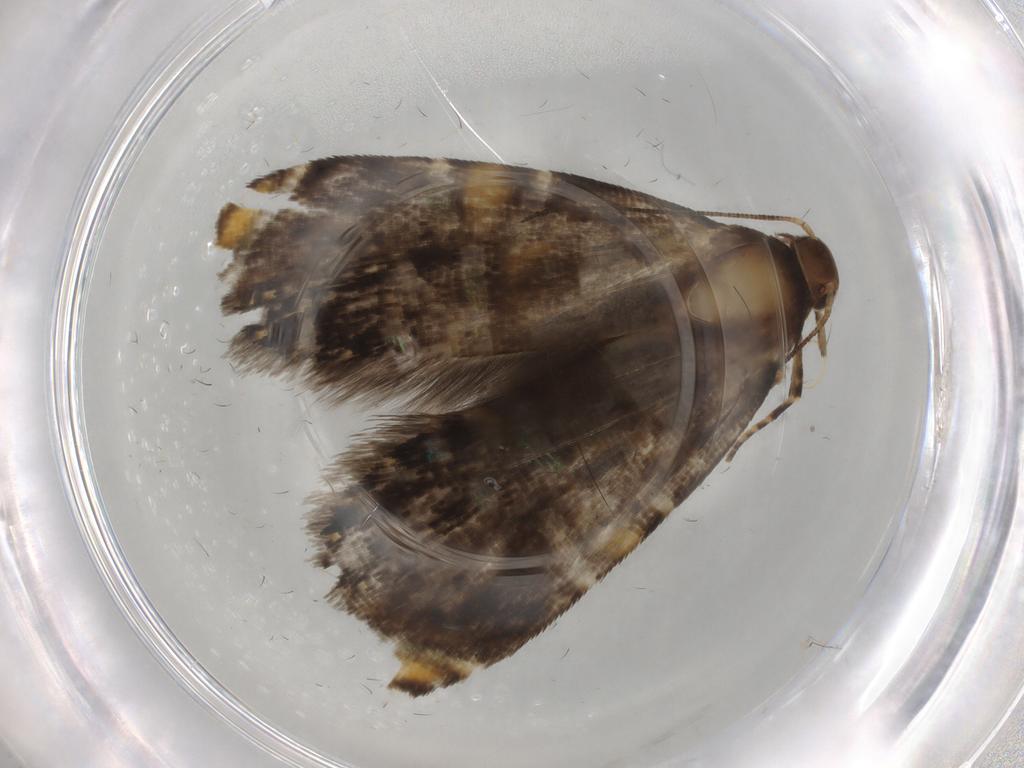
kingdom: Animalia
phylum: Arthropoda
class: Insecta
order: Lepidoptera
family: Glyphipterigidae
